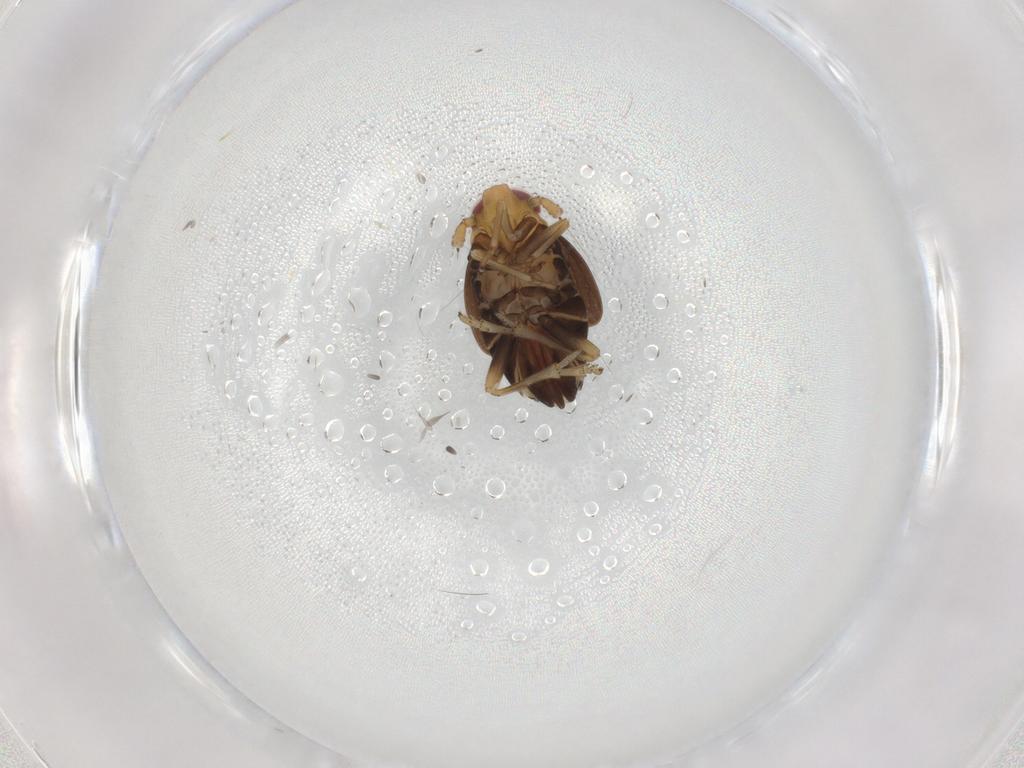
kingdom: Animalia
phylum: Arthropoda
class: Insecta
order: Hemiptera
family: Delphacidae
